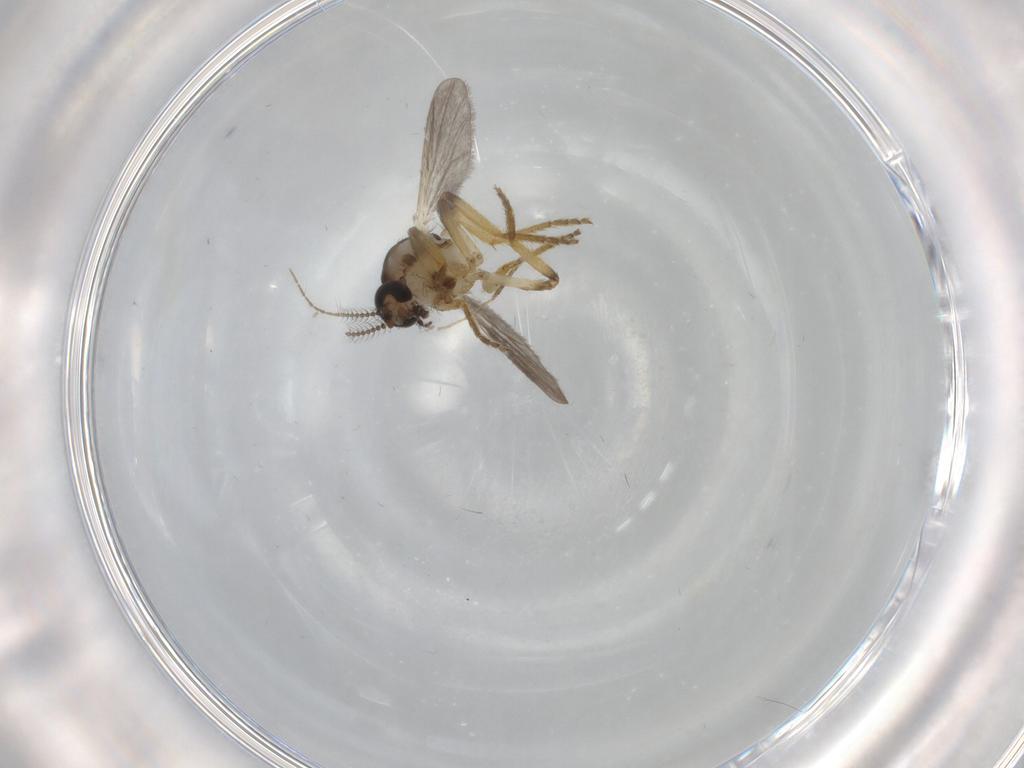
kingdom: Animalia
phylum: Arthropoda
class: Insecta
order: Diptera
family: Ceratopogonidae
